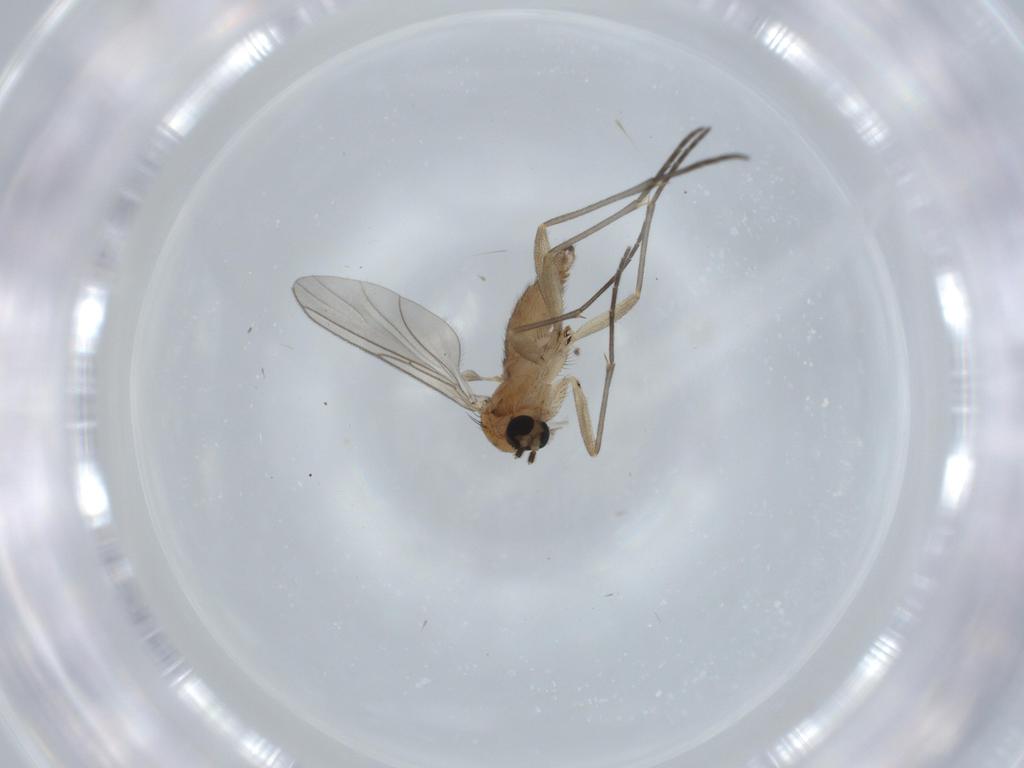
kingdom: Animalia
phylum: Arthropoda
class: Insecta
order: Diptera
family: Sciaridae
